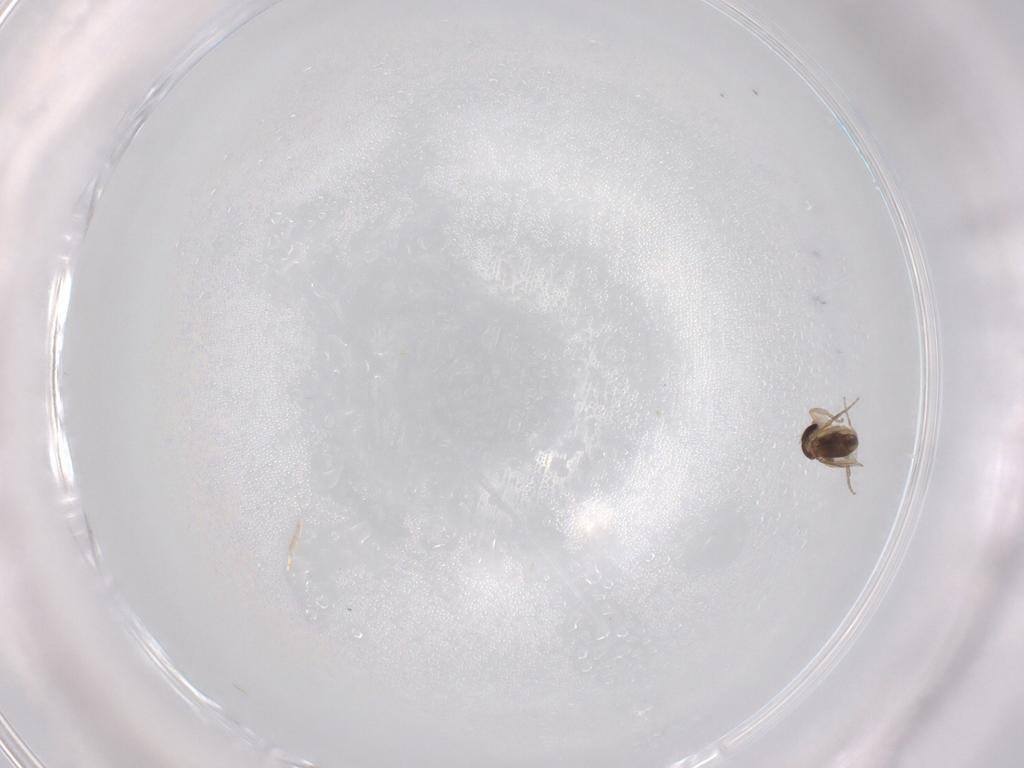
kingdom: Animalia
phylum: Arthropoda
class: Insecta
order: Diptera
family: Phoridae
